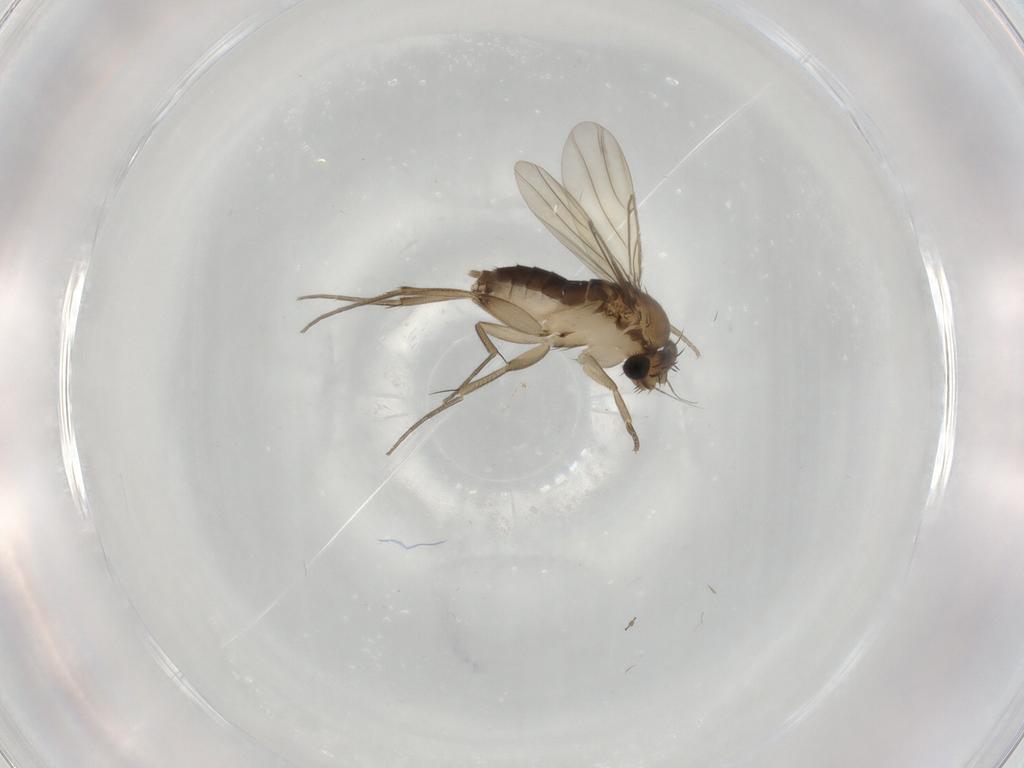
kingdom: Animalia
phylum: Arthropoda
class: Insecta
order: Diptera
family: Phoridae
